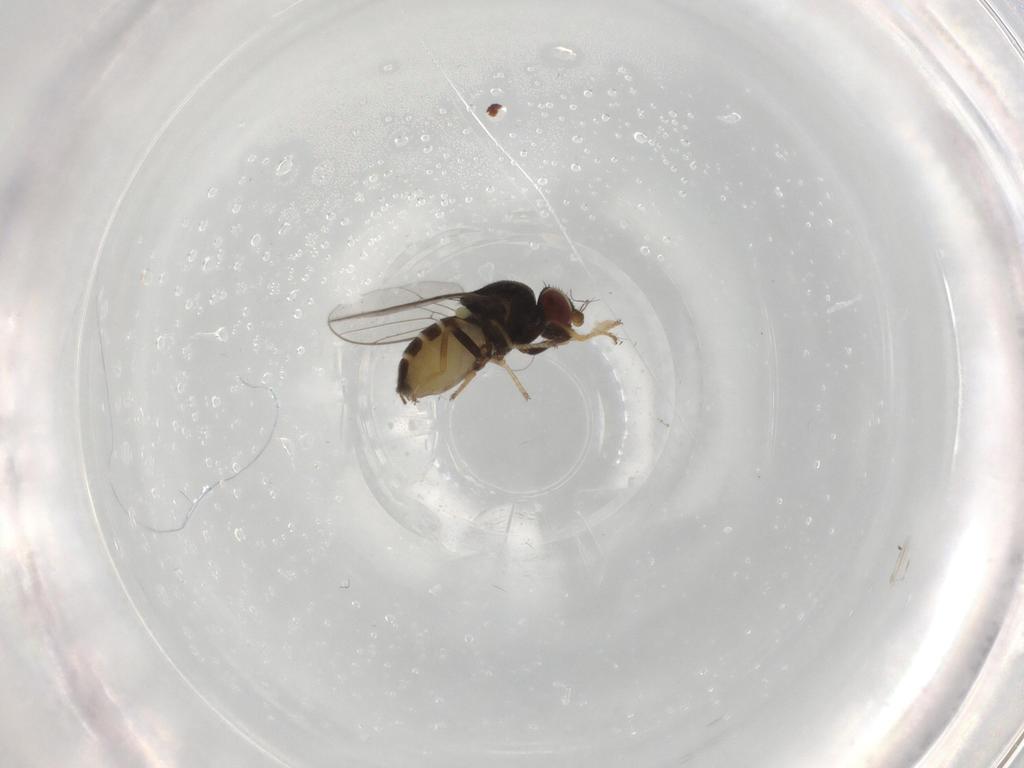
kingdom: Animalia
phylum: Arthropoda
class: Insecta
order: Diptera
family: Chloropidae
